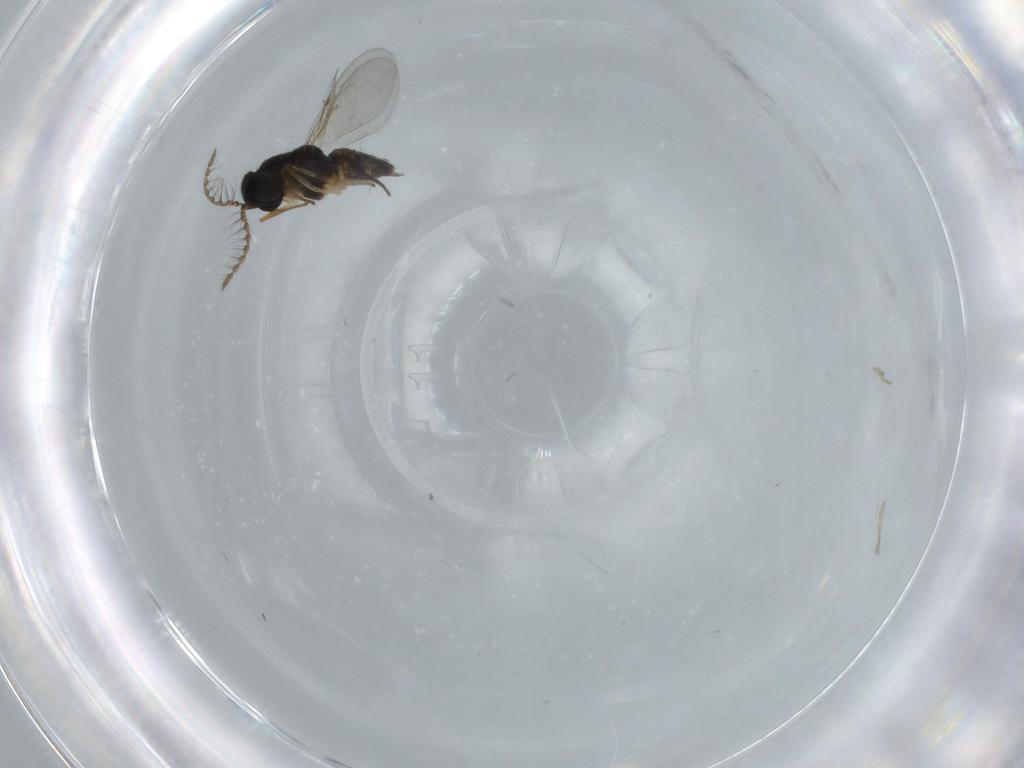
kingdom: Animalia
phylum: Arthropoda
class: Insecta
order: Hymenoptera
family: Encyrtidae
